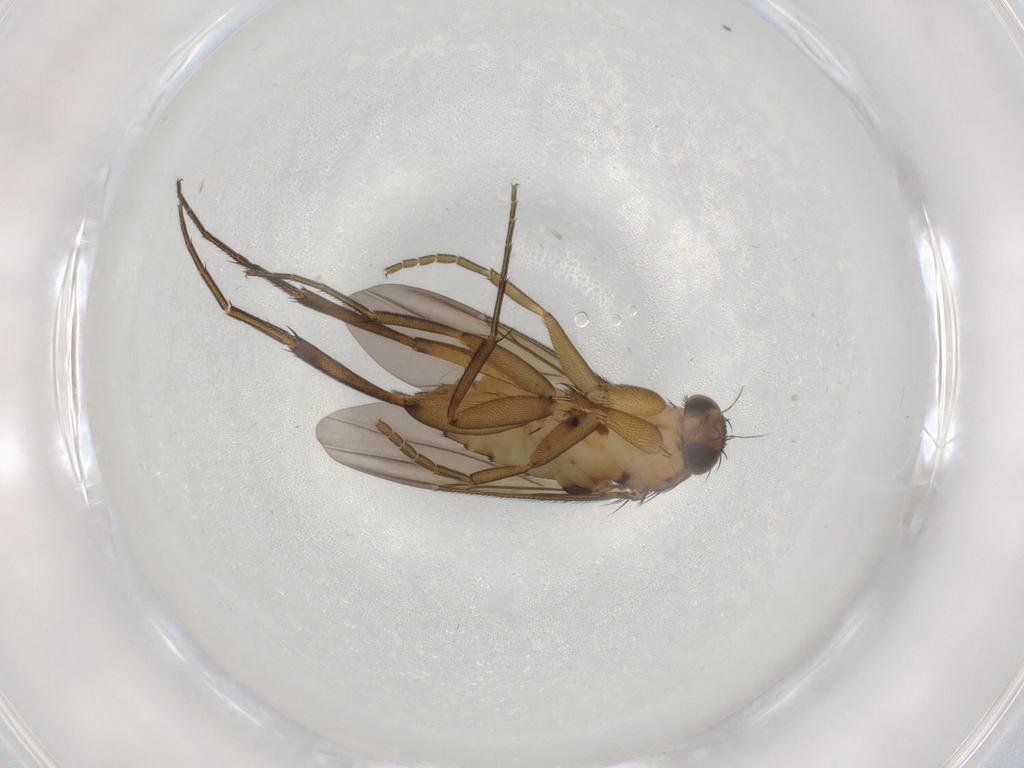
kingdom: Animalia
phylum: Arthropoda
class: Insecta
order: Diptera
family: Phoridae
